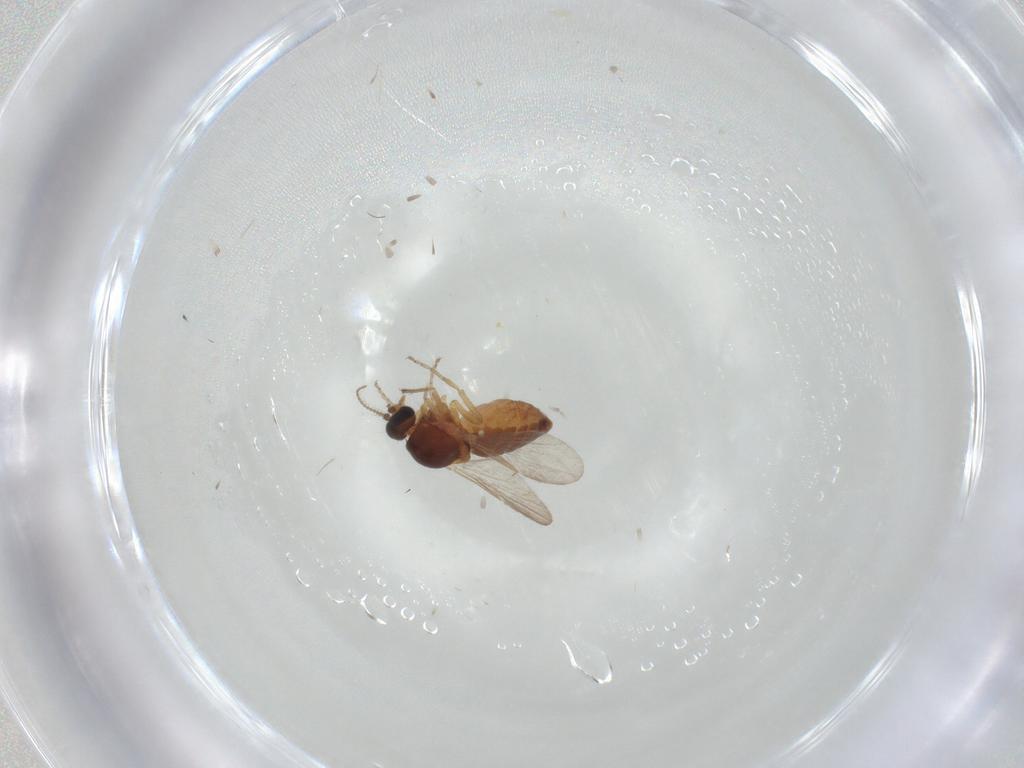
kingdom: Animalia
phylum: Arthropoda
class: Insecta
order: Diptera
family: Ceratopogonidae
